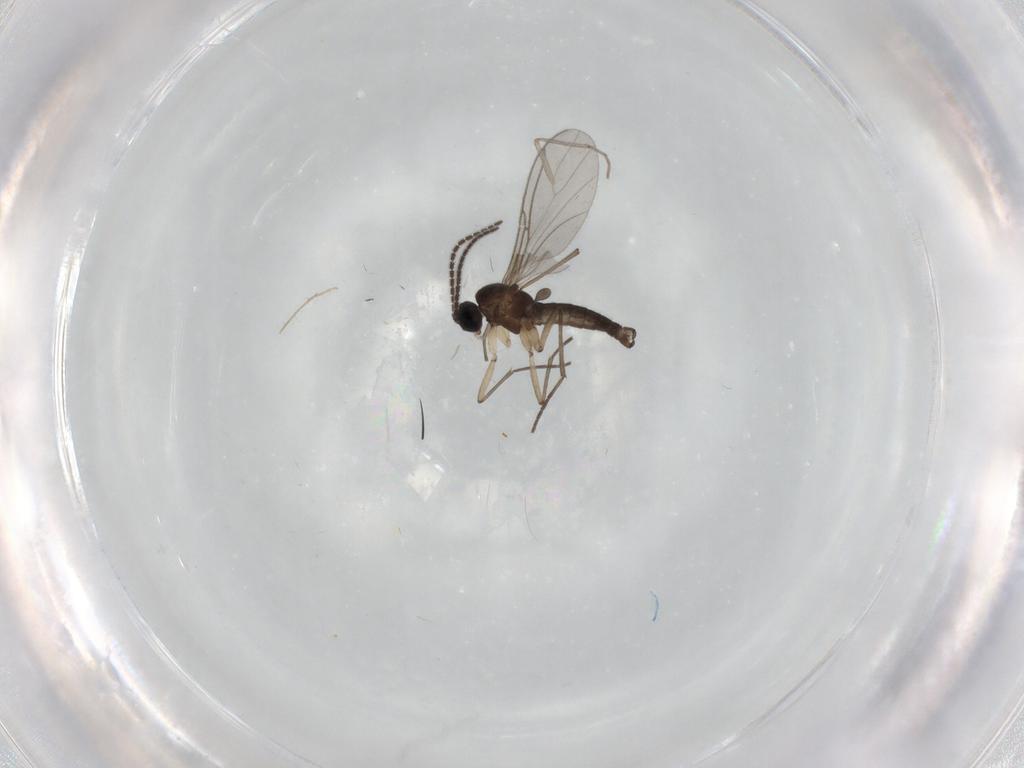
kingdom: Animalia
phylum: Arthropoda
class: Insecta
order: Diptera
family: Sciaridae
